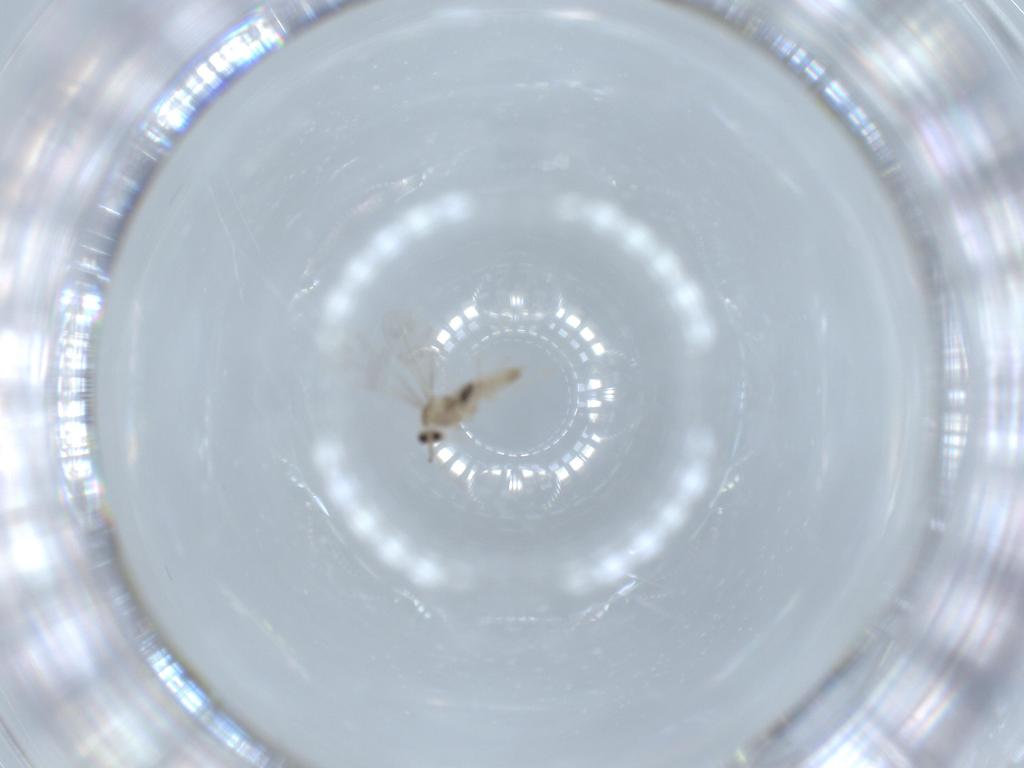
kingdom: Animalia
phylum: Arthropoda
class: Insecta
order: Diptera
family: Cecidomyiidae
